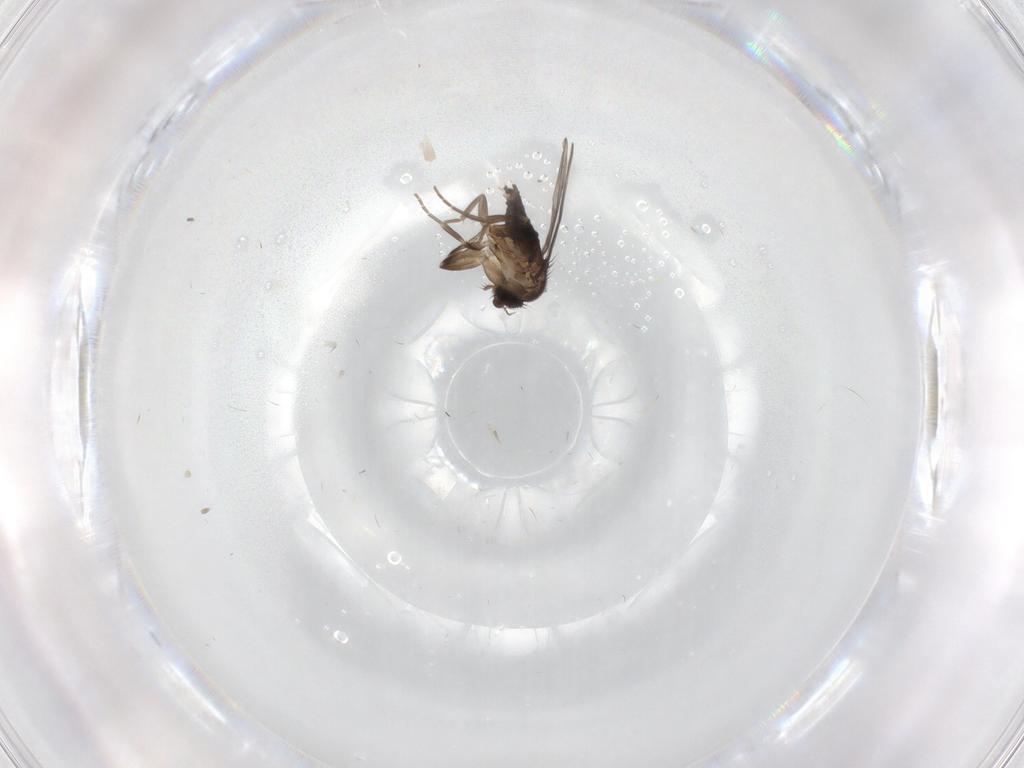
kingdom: Animalia
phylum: Arthropoda
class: Insecta
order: Diptera
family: Phoridae
